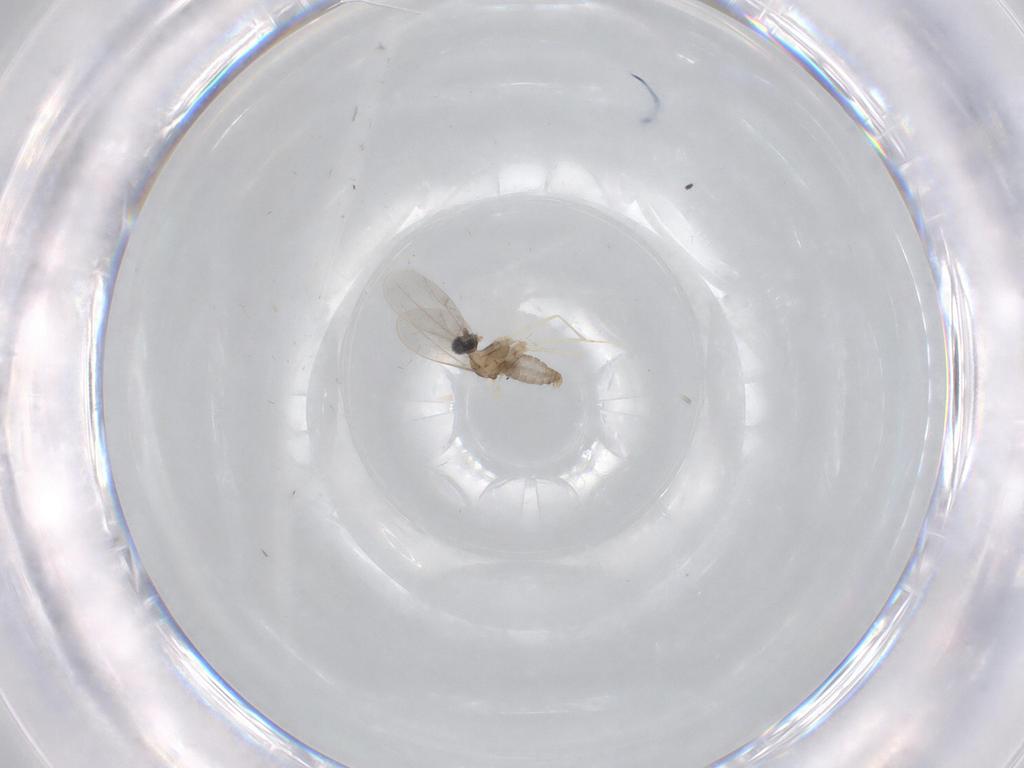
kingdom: Animalia
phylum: Arthropoda
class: Insecta
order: Diptera
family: Cecidomyiidae
